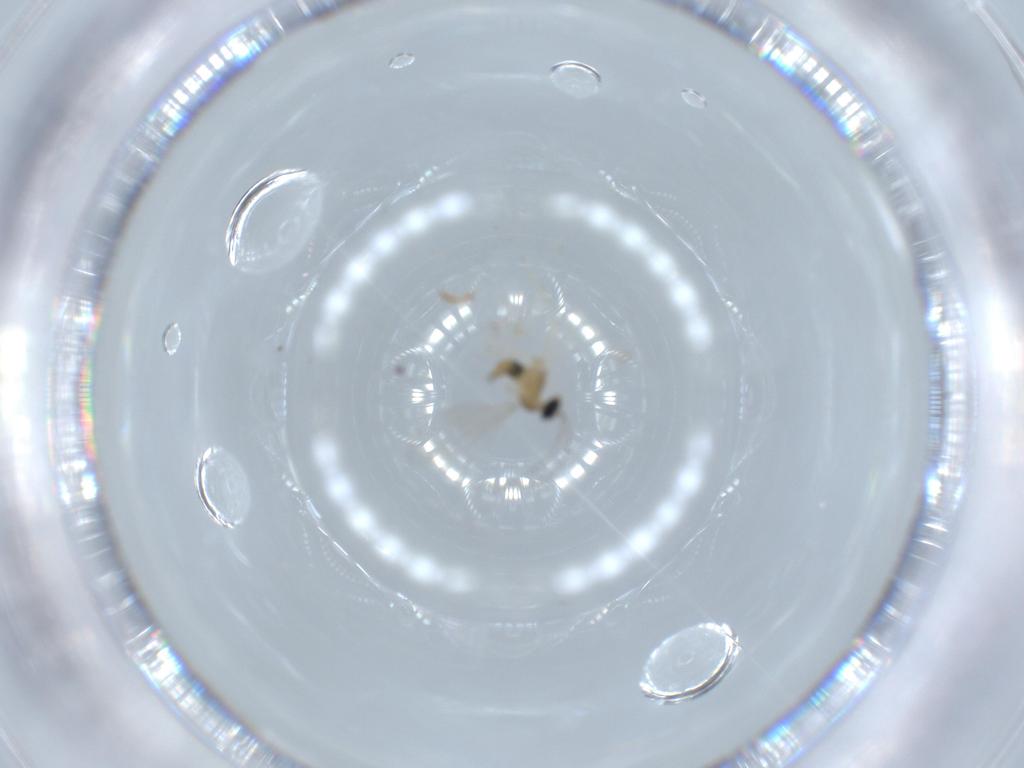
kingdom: Animalia
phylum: Arthropoda
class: Insecta
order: Diptera
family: Cecidomyiidae
